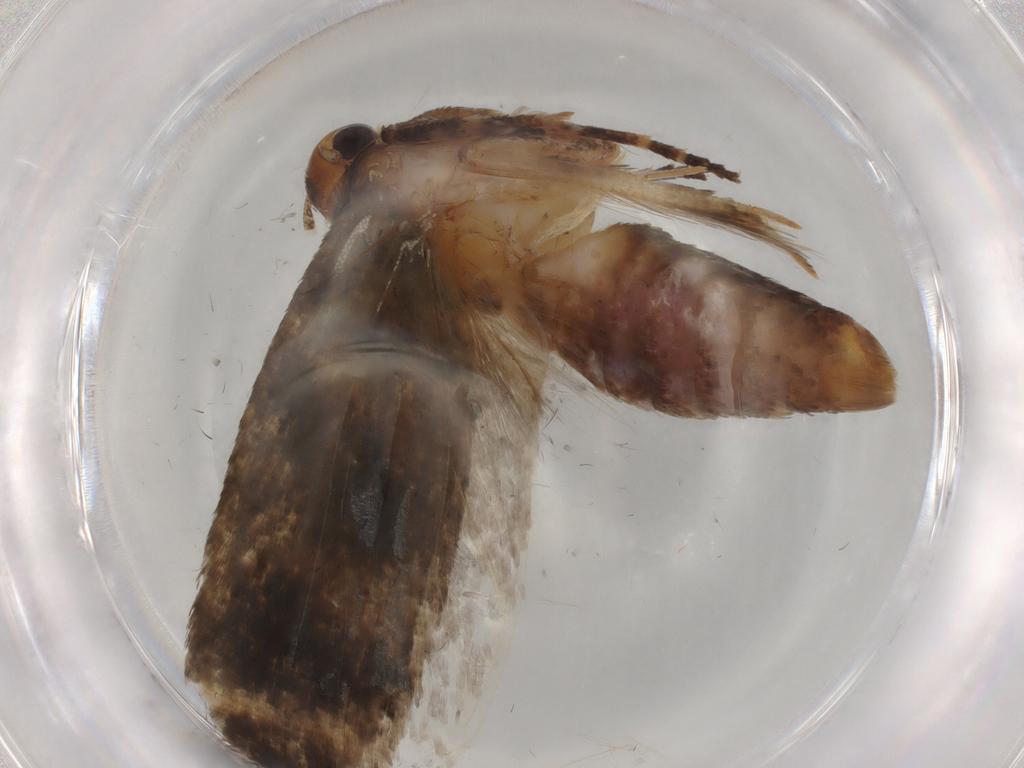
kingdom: Animalia
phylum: Arthropoda
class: Insecta
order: Lepidoptera
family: Gelechiidae
